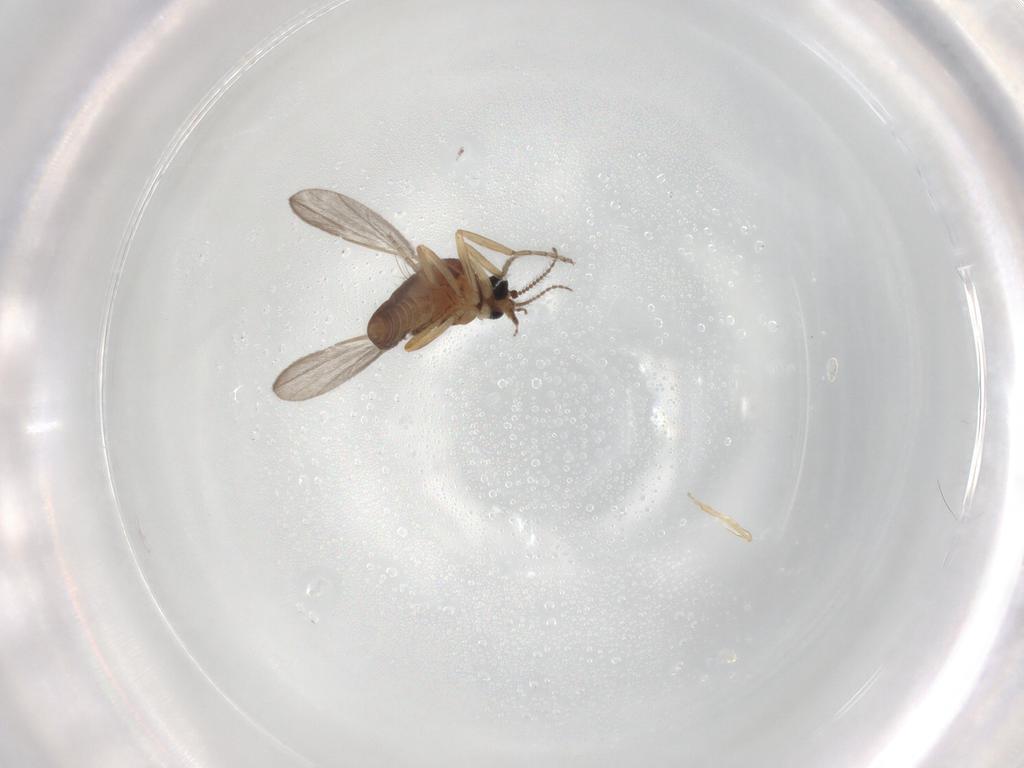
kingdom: Animalia
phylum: Arthropoda
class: Insecta
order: Diptera
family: Ceratopogonidae
